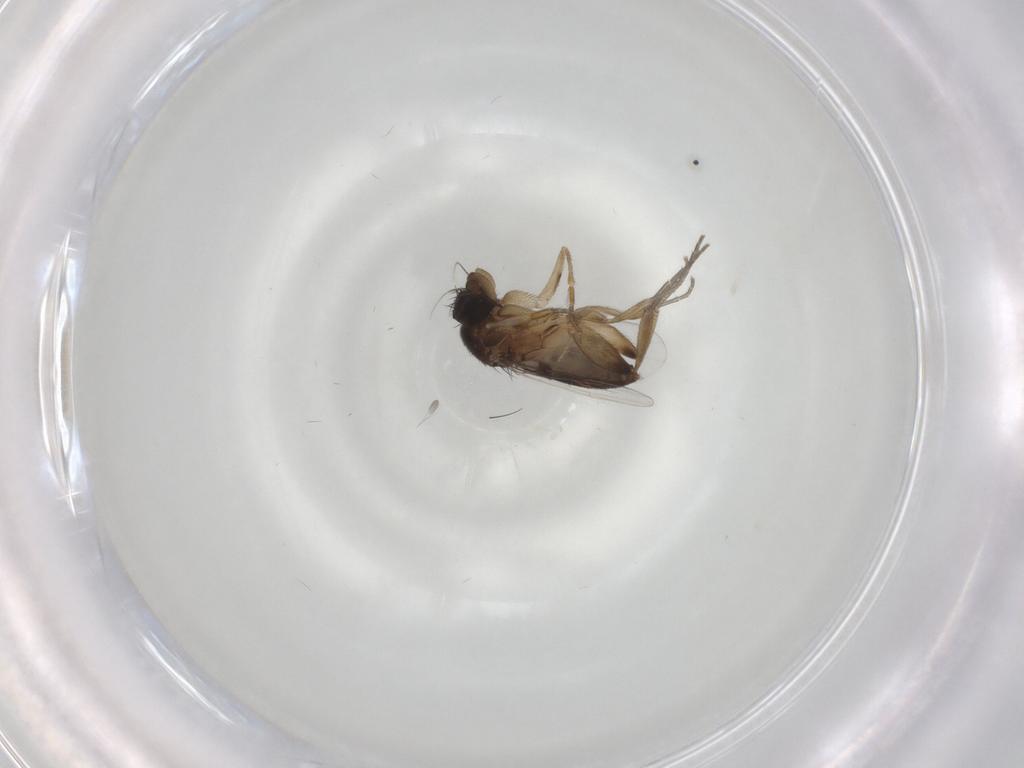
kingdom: Animalia
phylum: Arthropoda
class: Insecta
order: Diptera
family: Phoridae
